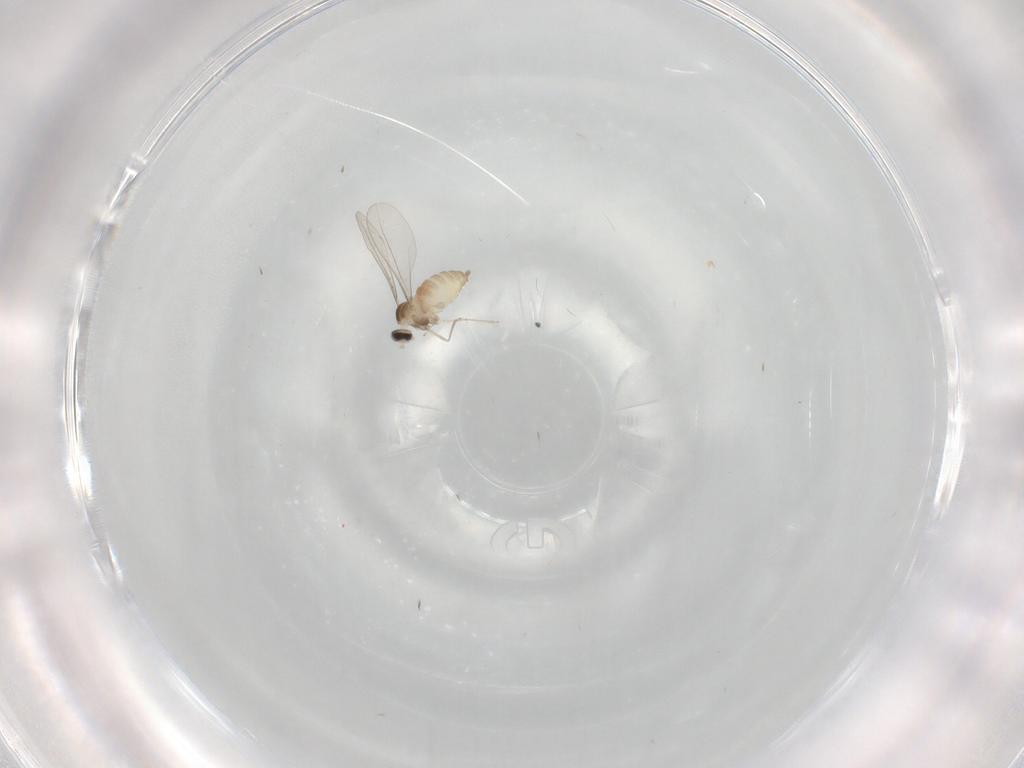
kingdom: Animalia
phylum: Arthropoda
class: Insecta
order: Diptera
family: Cecidomyiidae
